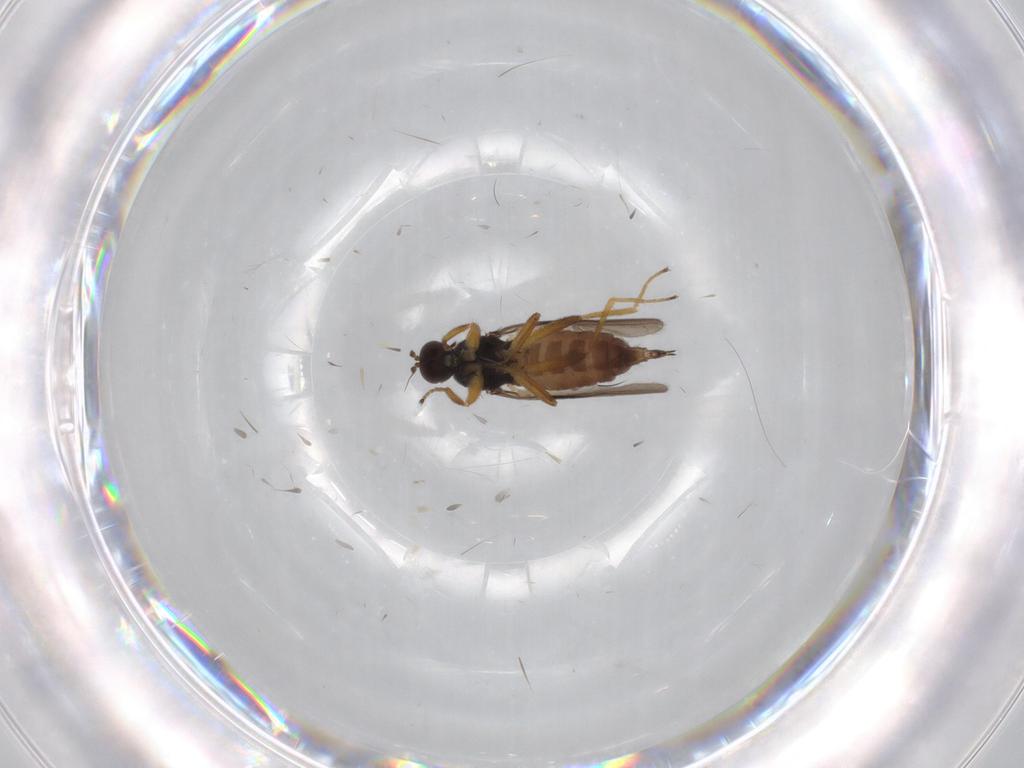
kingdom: Animalia
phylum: Arthropoda
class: Insecta
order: Diptera
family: Hybotidae
